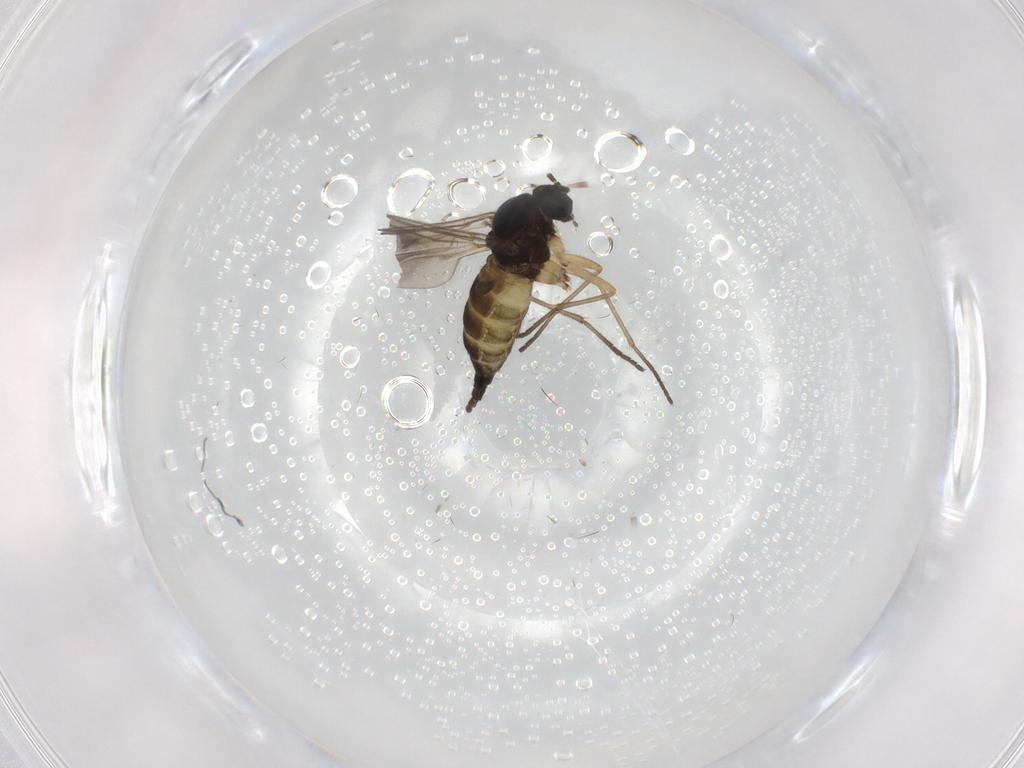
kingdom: Animalia
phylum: Arthropoda
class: Insecta
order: Diptera
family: Sciaridae
